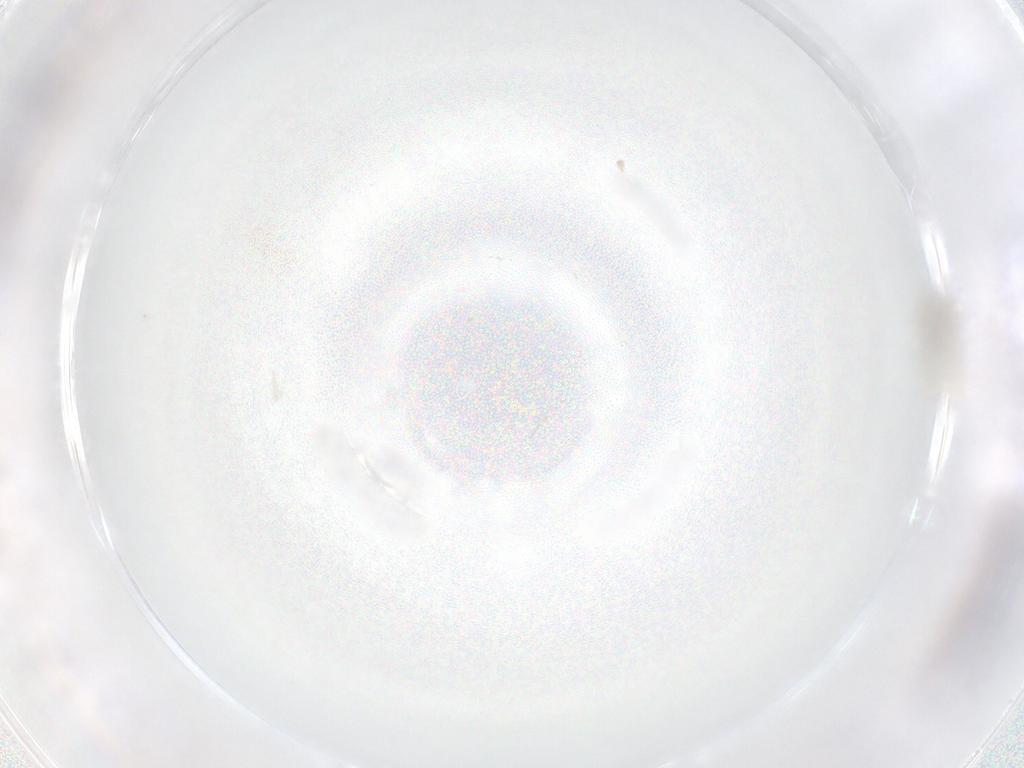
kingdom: Animalia
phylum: Arthropoda
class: Insecta
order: Diptera
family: Cecidomyiidae
